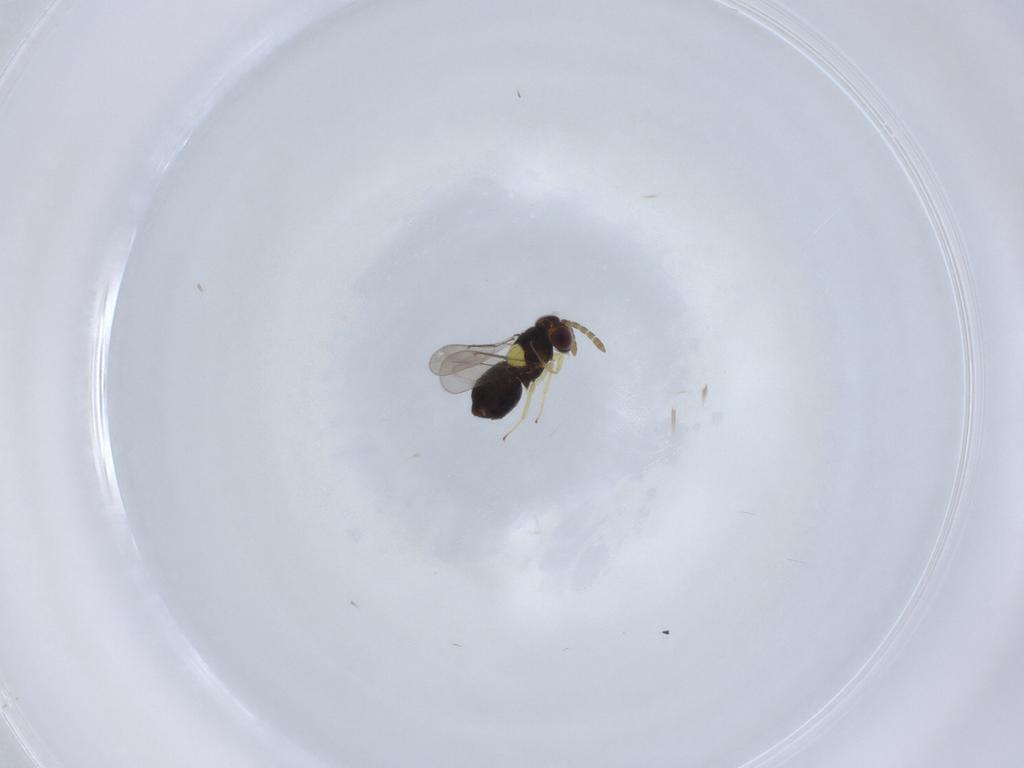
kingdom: Animalia
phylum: Arthropoda
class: Insecta
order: Hymenoptera
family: Aphelinidae
